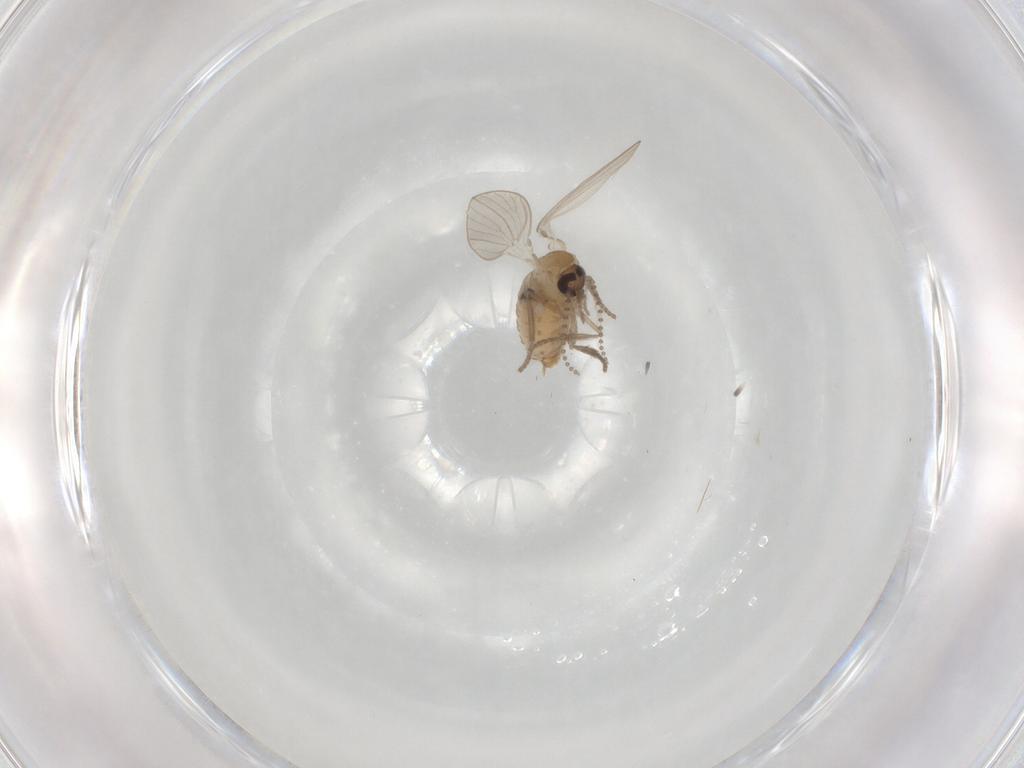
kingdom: Animalia
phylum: Arthropoda
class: Insecta
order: Diptera
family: Psychodidae
